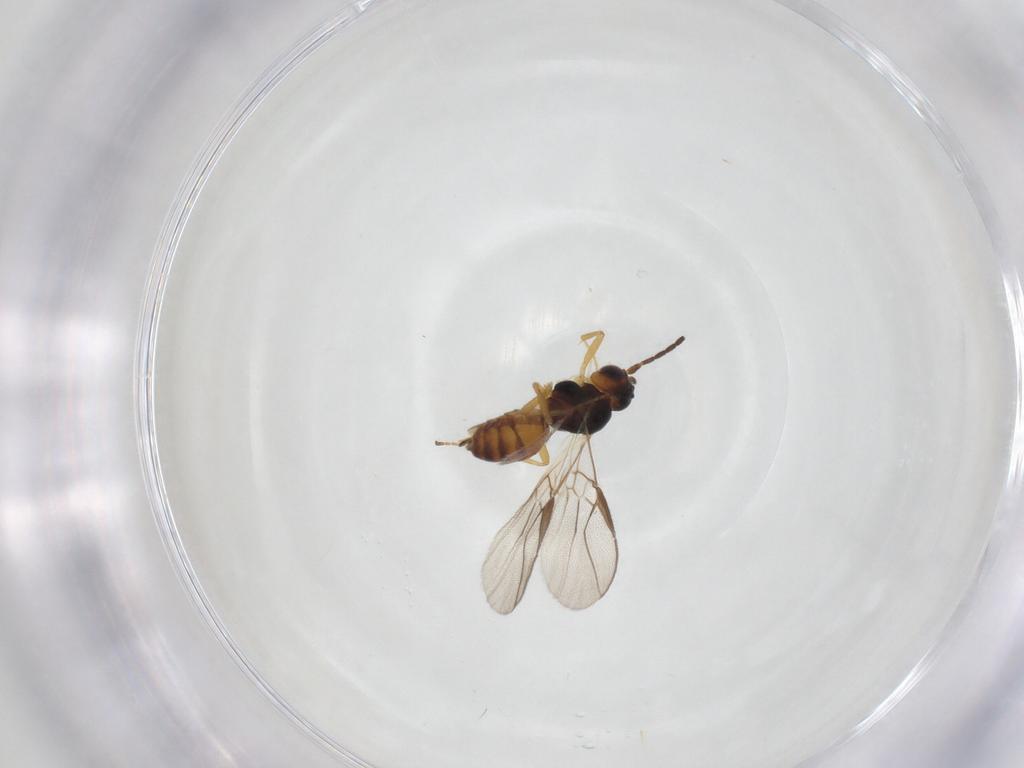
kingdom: Animalia
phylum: Arthropoda
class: Insecta
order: Hymenoptera
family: Braconidae
